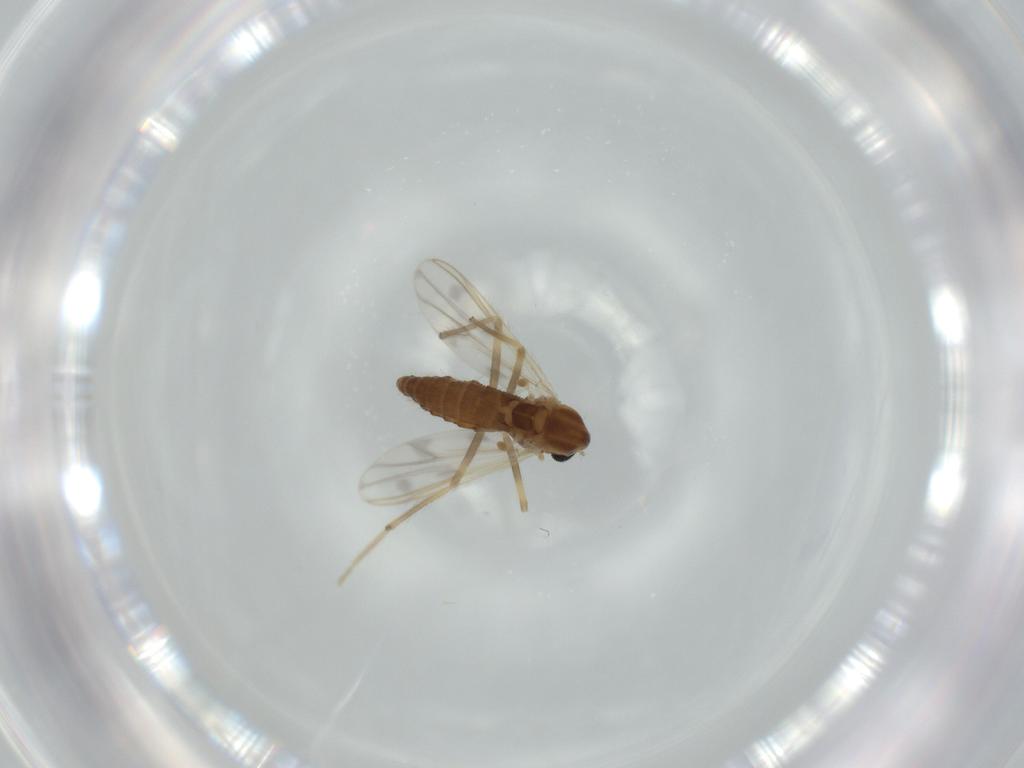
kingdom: Animalia
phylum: Arthropoda
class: Insecta
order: Diptera
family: Chironomidae
